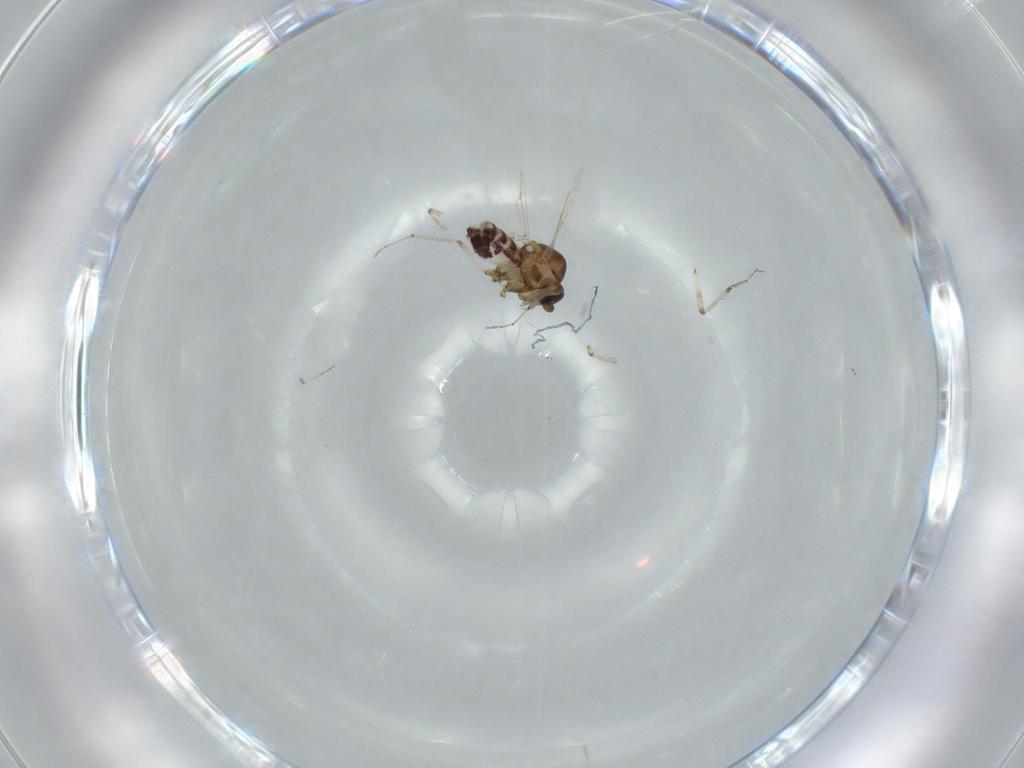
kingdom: Animalia
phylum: Arthropoda
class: Insecta
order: Diptera
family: Ceratopogonidae
